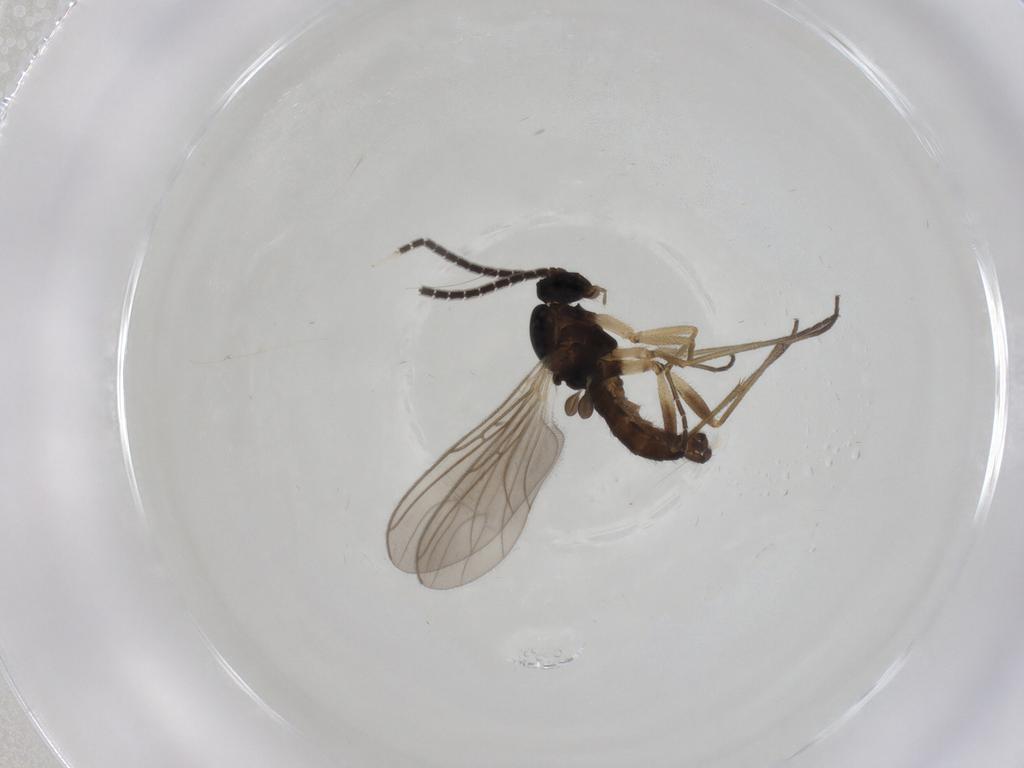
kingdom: Animalia
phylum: Arthropoda
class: Insecta
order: Diptera
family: Sciaridae
